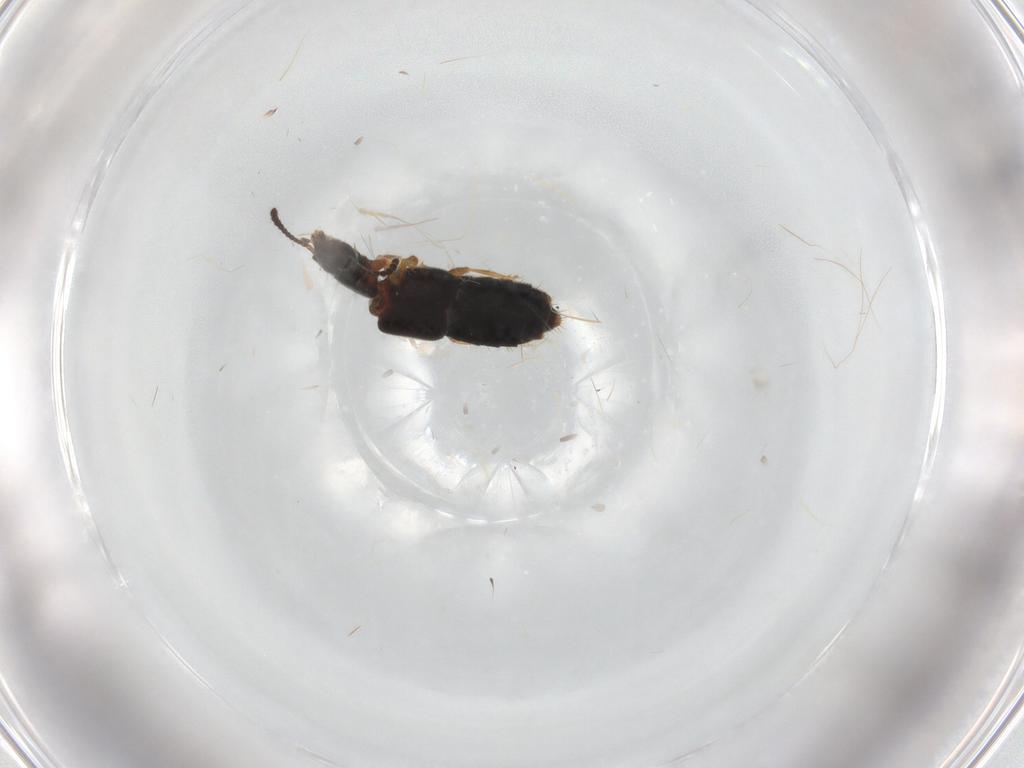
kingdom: Animalia
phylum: Arthropoda
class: Insecta
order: Coleoptera
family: Staphylinidae
